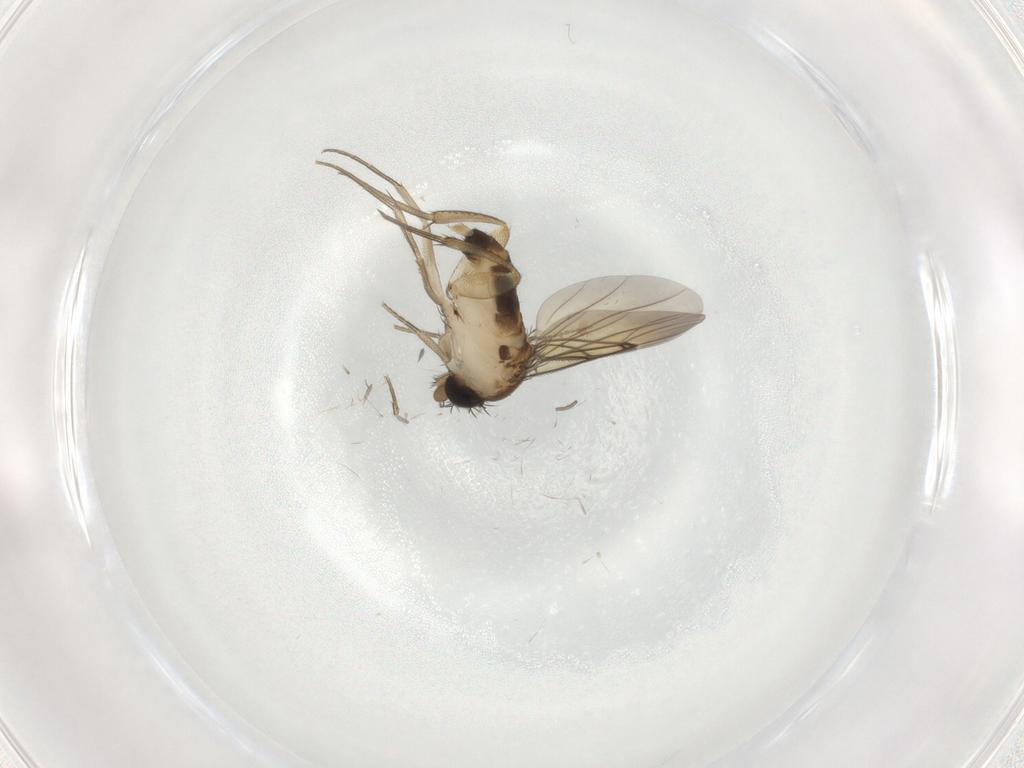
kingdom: Animalia
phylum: Arthropoda
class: Insecta
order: Diptera
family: Cecidomyiidae
